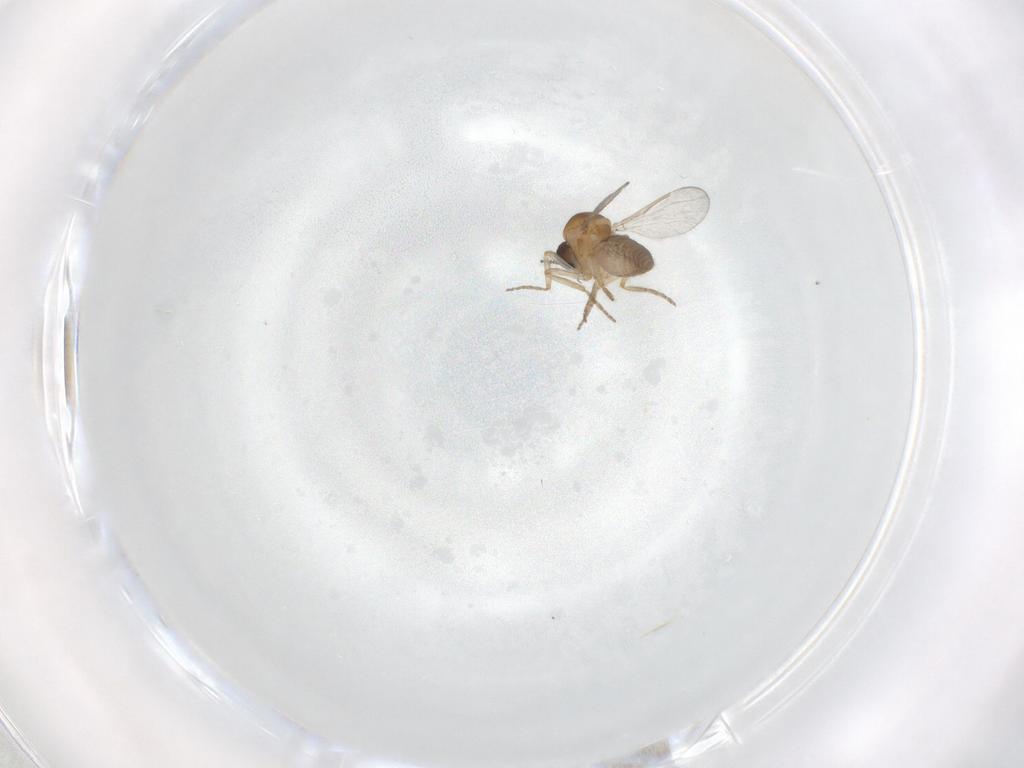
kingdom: Animalia
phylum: Arthropoda
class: Insecta
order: Diptera
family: Ceratopogonidae
